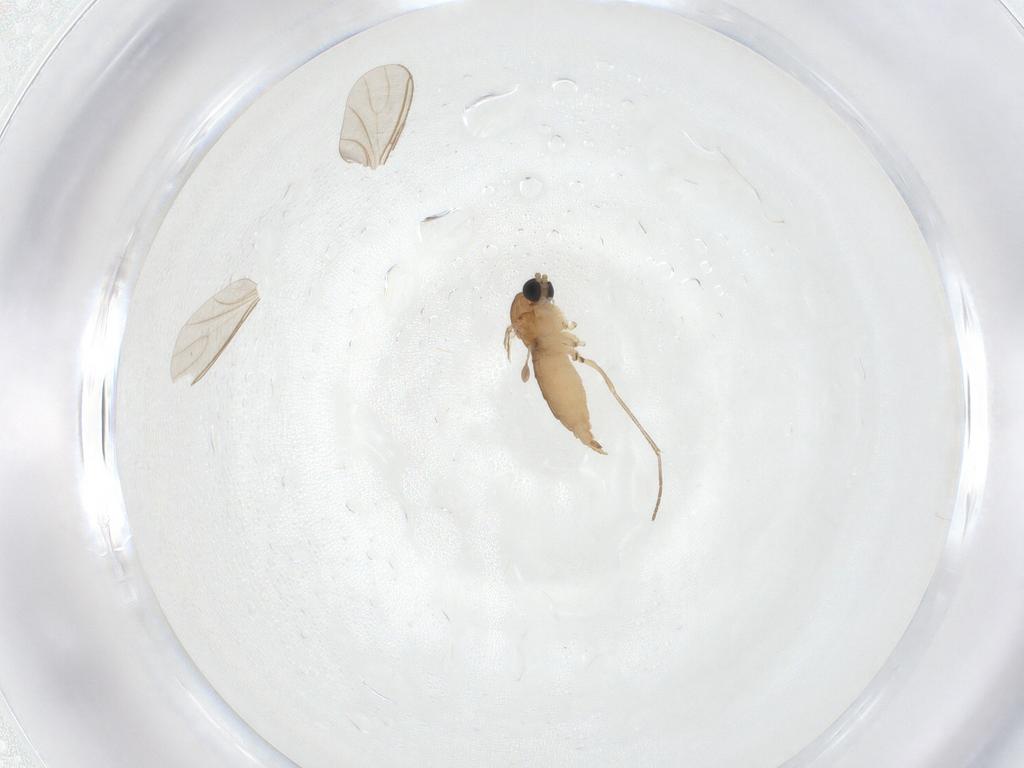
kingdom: Animalia
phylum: Arthropoda
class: Insecta
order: Diptera
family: Sciaridae
